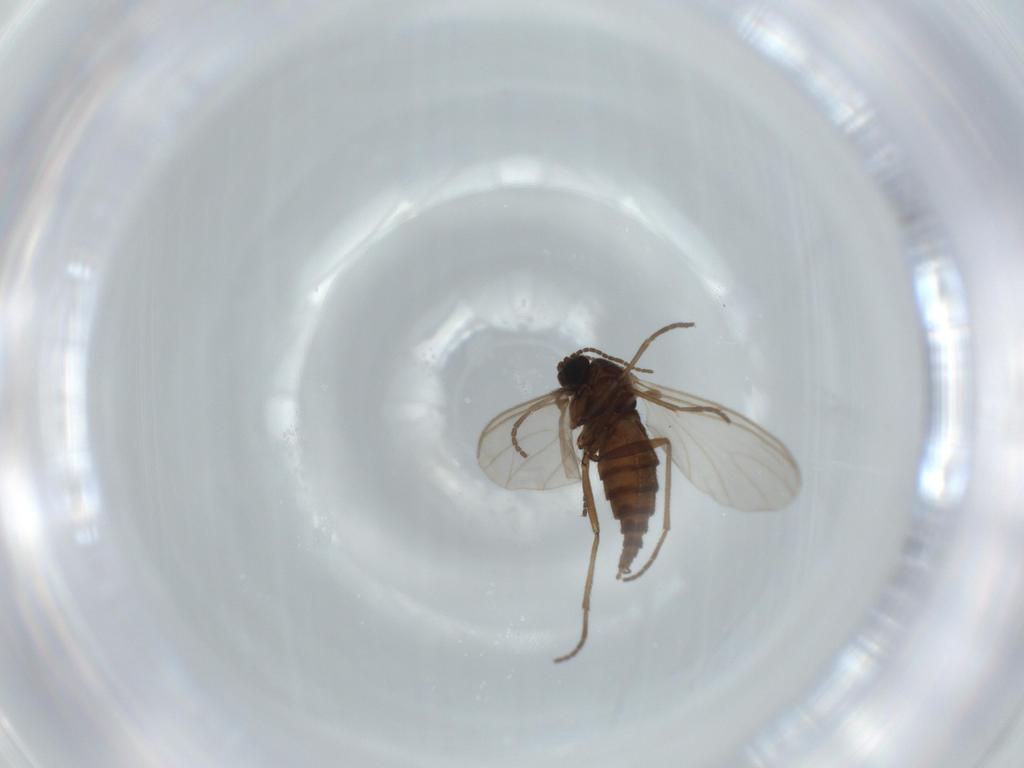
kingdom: Animalia
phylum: Arthropoda
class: Insecta
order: Diptera
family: Sciaridae
